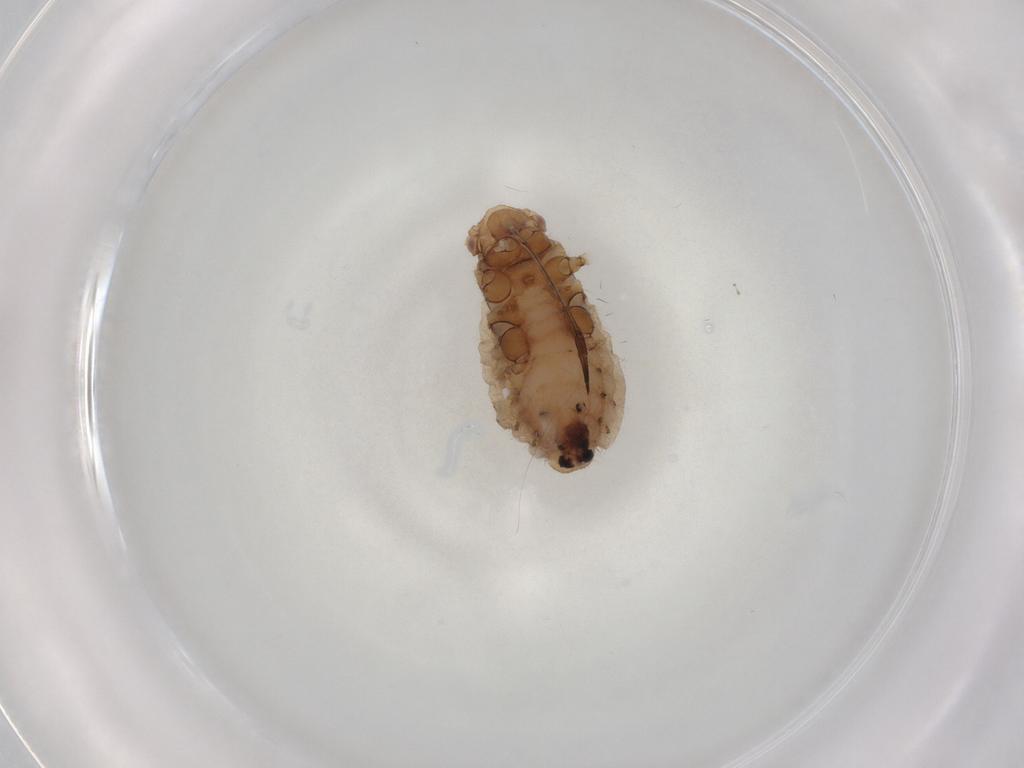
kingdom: Animalia
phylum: Arthropoda
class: Insecta
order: Hemiptera
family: Aphididae
